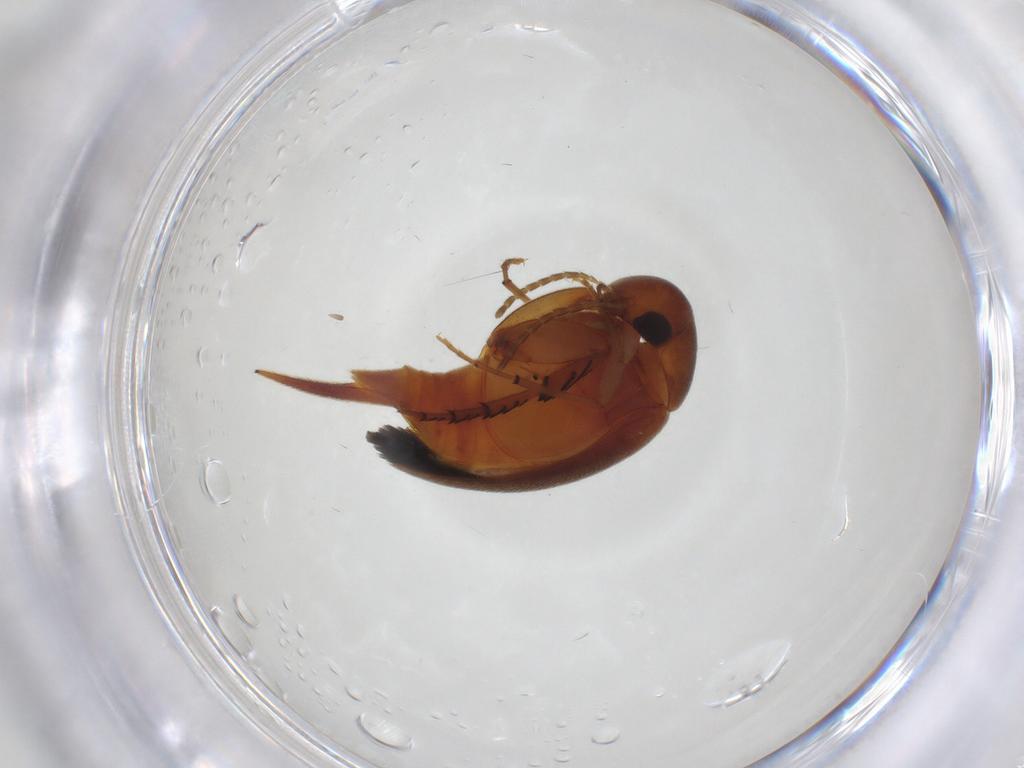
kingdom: Animalia
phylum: Arthropoda
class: Insecta
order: Coleoptera
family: Mordellidae
